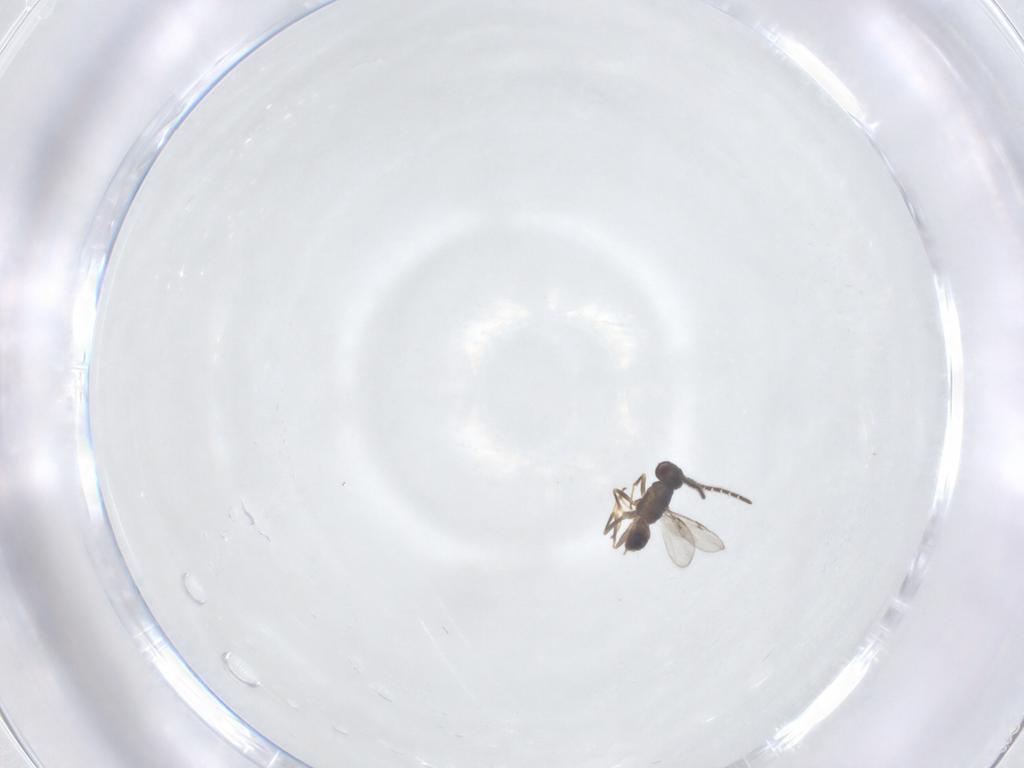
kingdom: Animalia
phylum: Arthropoda
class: Insecta
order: Hymenoptera
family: Encyrtidae
